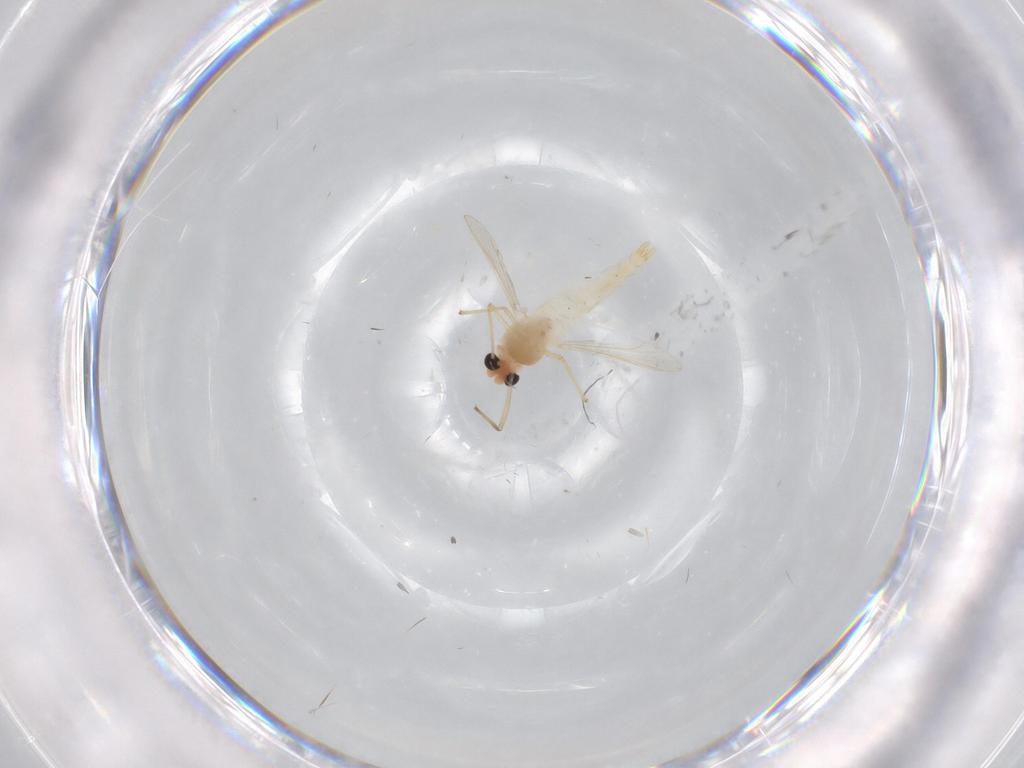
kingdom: Animalia
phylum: Arthropoda
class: Insecta
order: Diptera
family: Chironomidae
